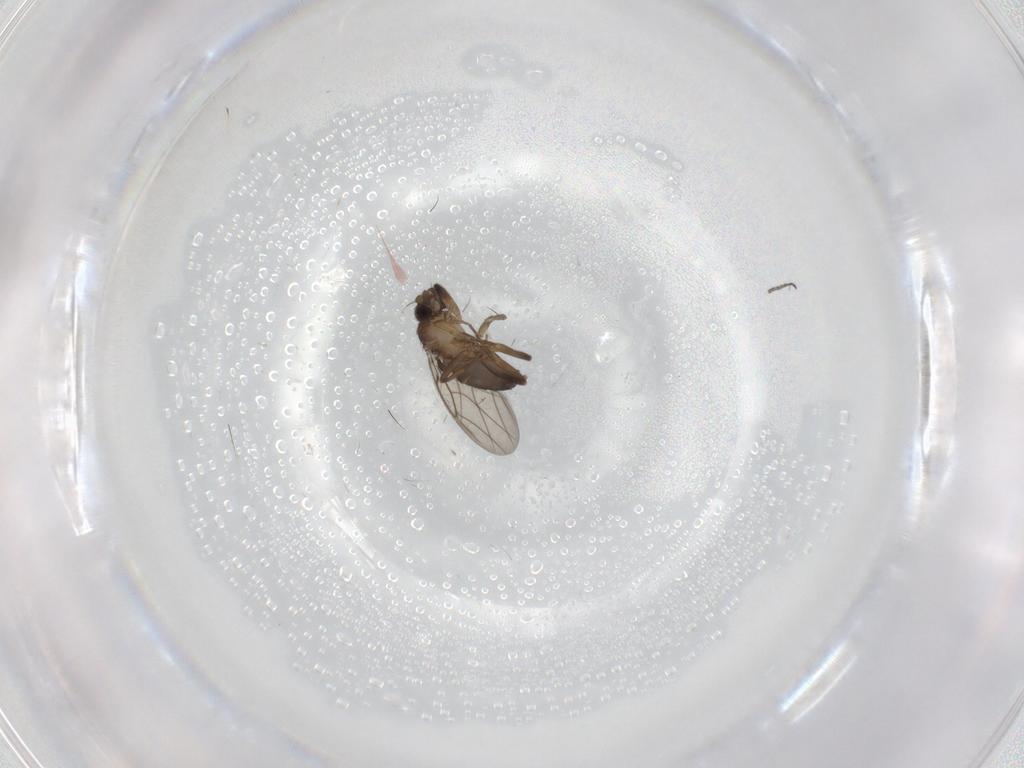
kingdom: Animalia
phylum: Arthropoda
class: Insecta
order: Diptera
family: Sciaridae
